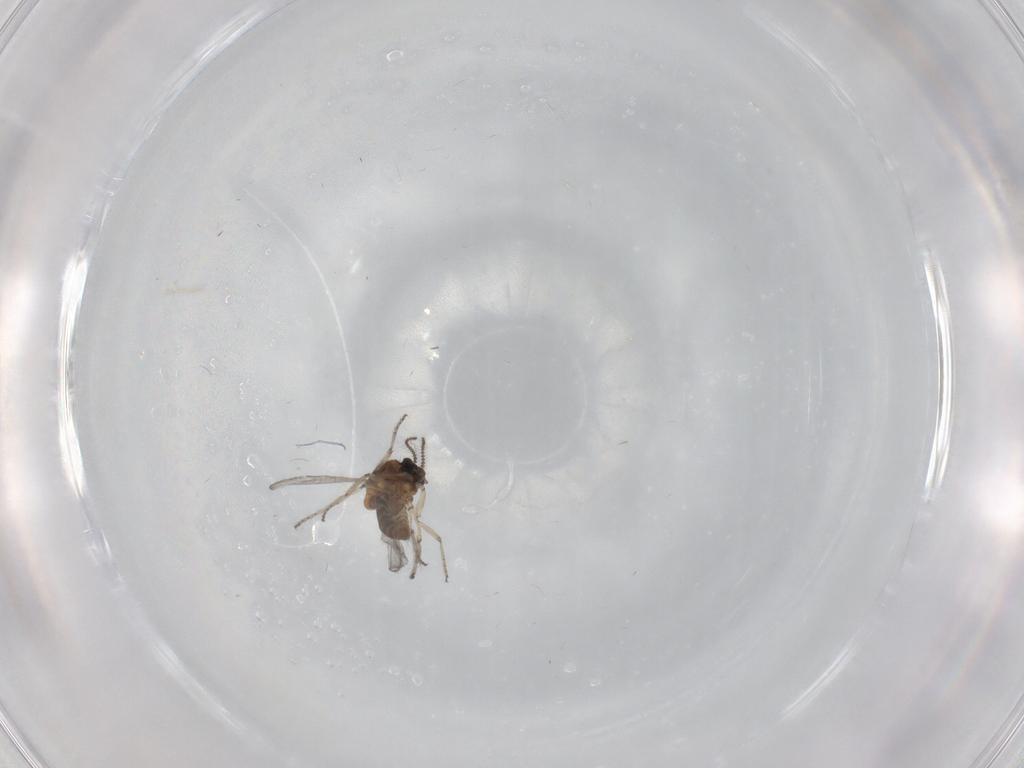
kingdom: Animalia
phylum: Arthropoda
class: Insecta
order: Diptera
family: Ceratopogonidae
